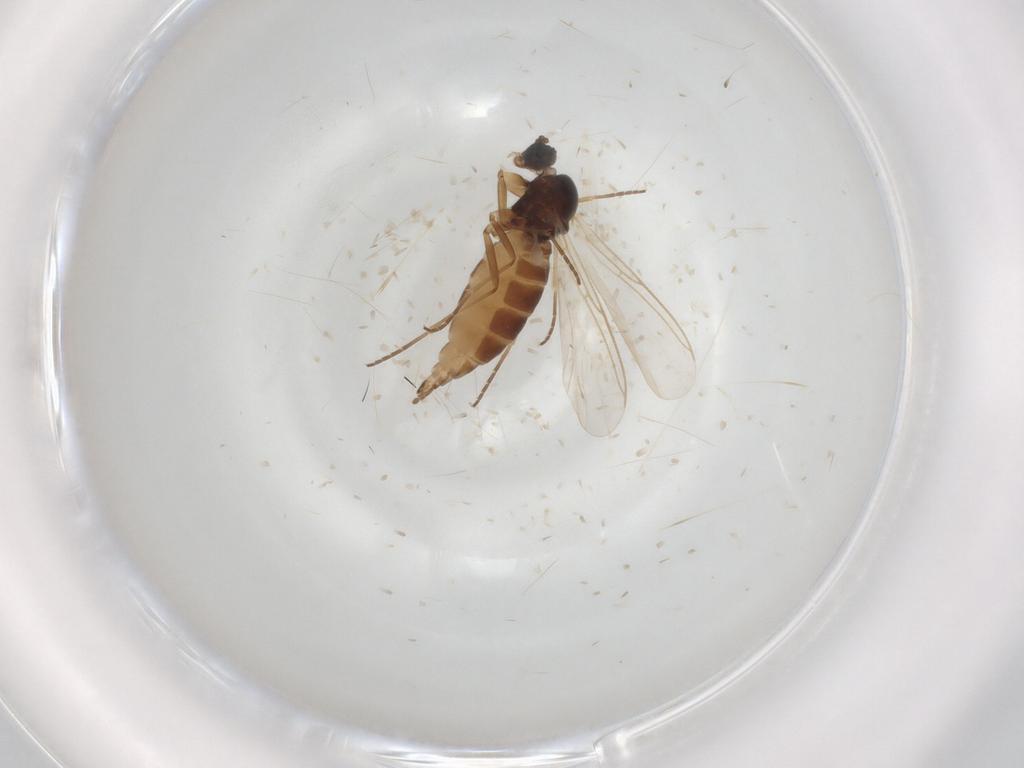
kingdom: Animalia
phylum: Arthropoda
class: Insecta
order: Diptera
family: Sciaridae
